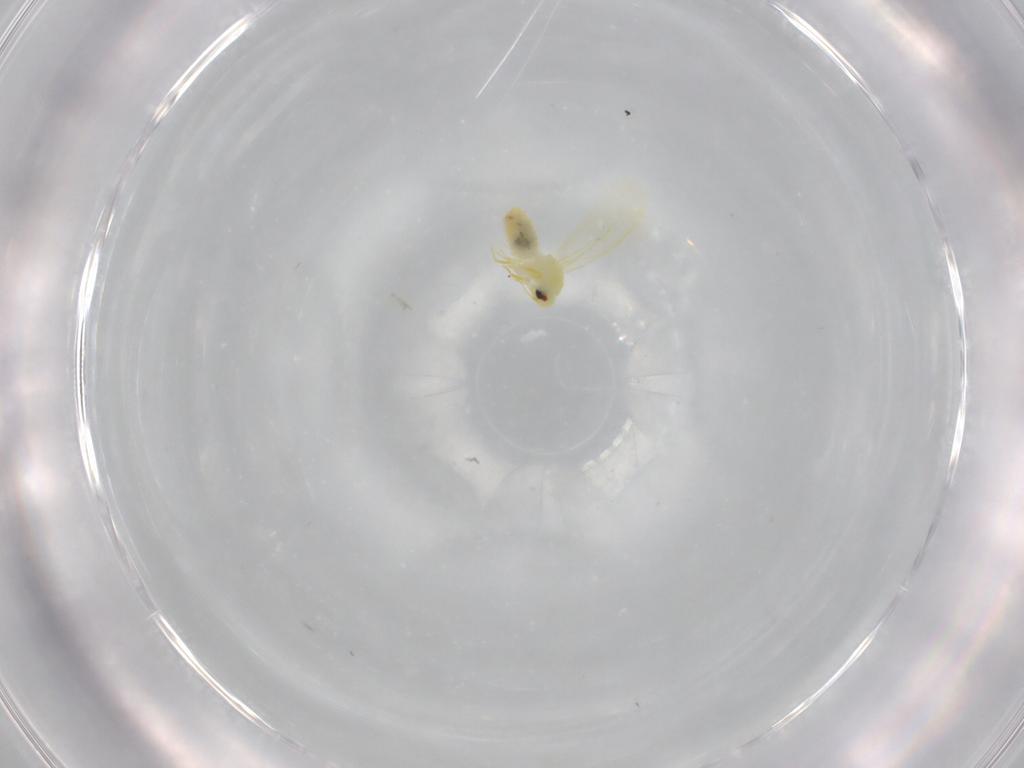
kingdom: Animalia
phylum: Arthropoda
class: Insecta
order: Hemiptera
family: Aleyrodidae
